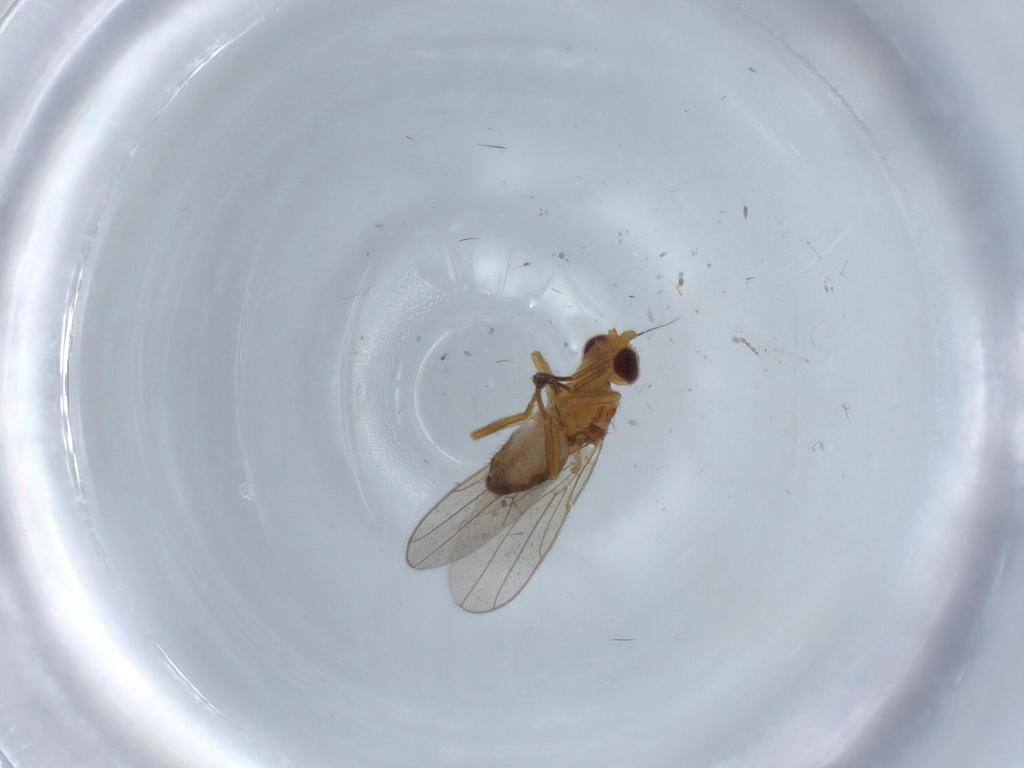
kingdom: Animalia
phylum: Arthropoda
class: Insecta
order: Diptera
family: Chloropidae
